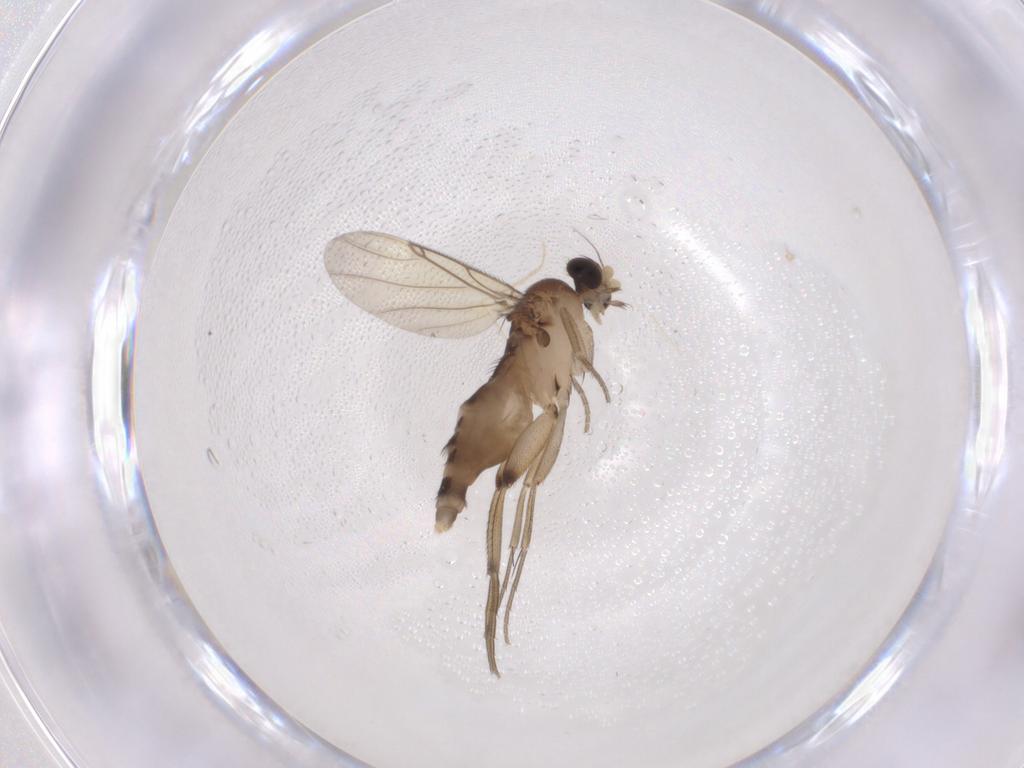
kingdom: Animalia
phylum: Arthropoda
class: Insecta
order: Diptera
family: Phoridae
